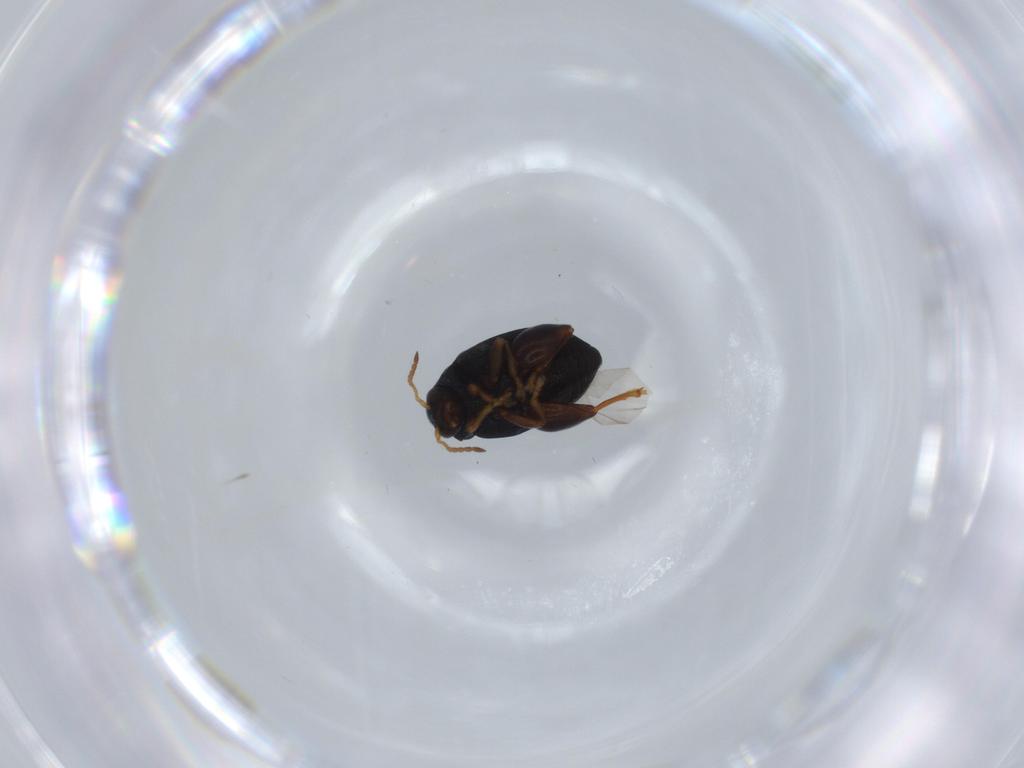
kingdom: Animalia
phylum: Arthropoda
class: Insecta
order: Coleoptera
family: Chrysomelidae
